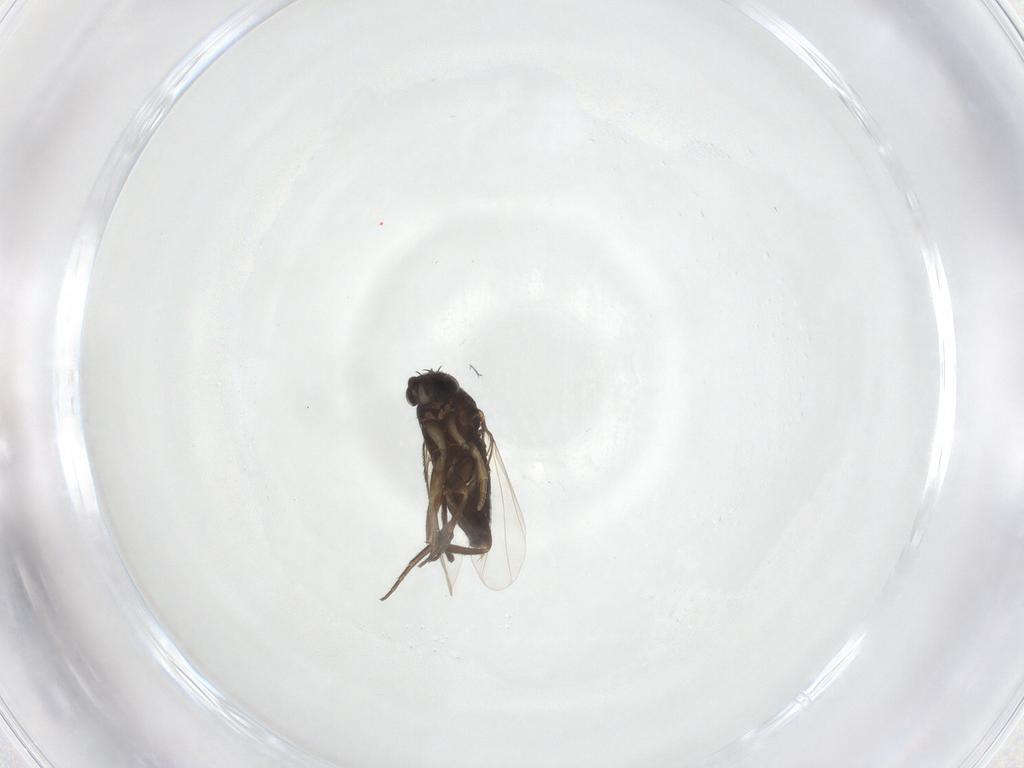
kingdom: Animalia
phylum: Arthropoda
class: Insecta
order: Diptera
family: Phoridae
